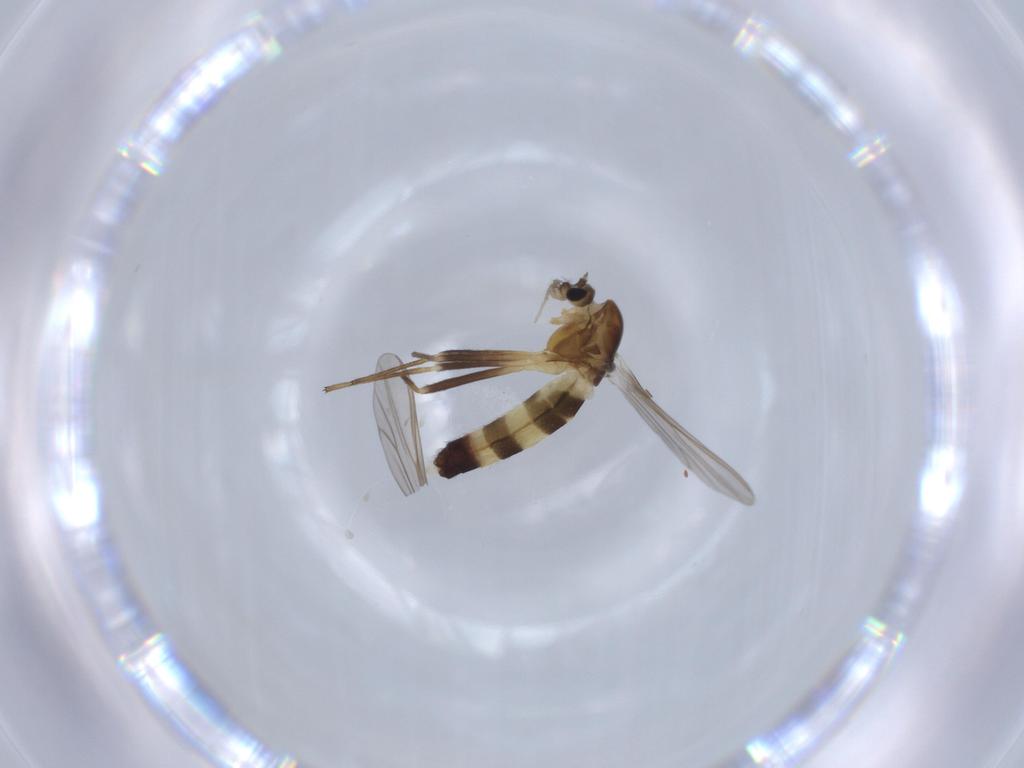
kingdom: Animalia
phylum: Arthropoda
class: Insecta
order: Diptera
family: Chironomidae
